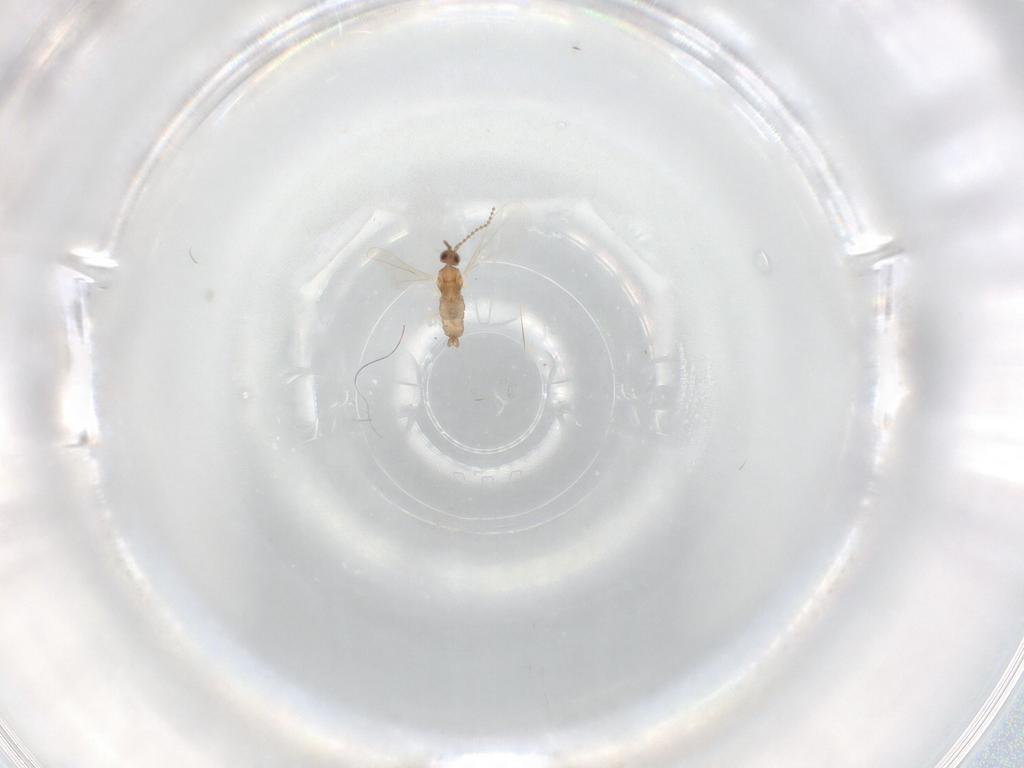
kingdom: Animalia
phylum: Arthropoda
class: Insecta
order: Diptera
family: Cecidomyiidae
